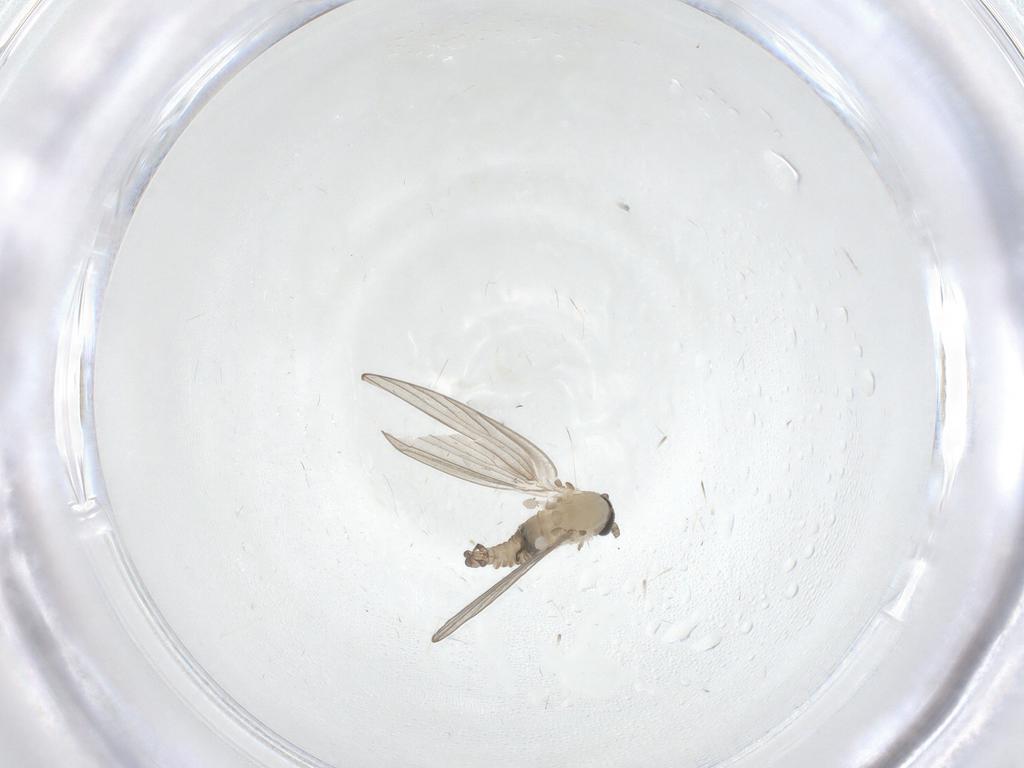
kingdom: Animalia
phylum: Arthropoda
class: Insecta
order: Diptera
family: Psychodidae
